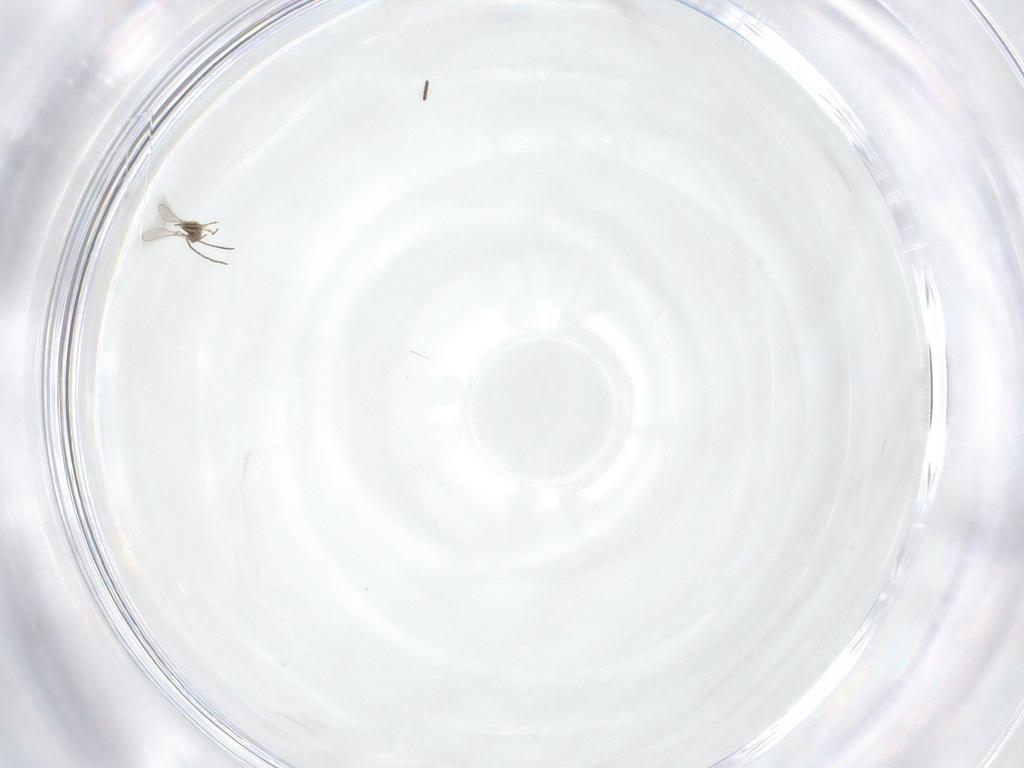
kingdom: Animalia
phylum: Arthropoda
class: Insecta
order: Hymenoptera
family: Mymaridae
